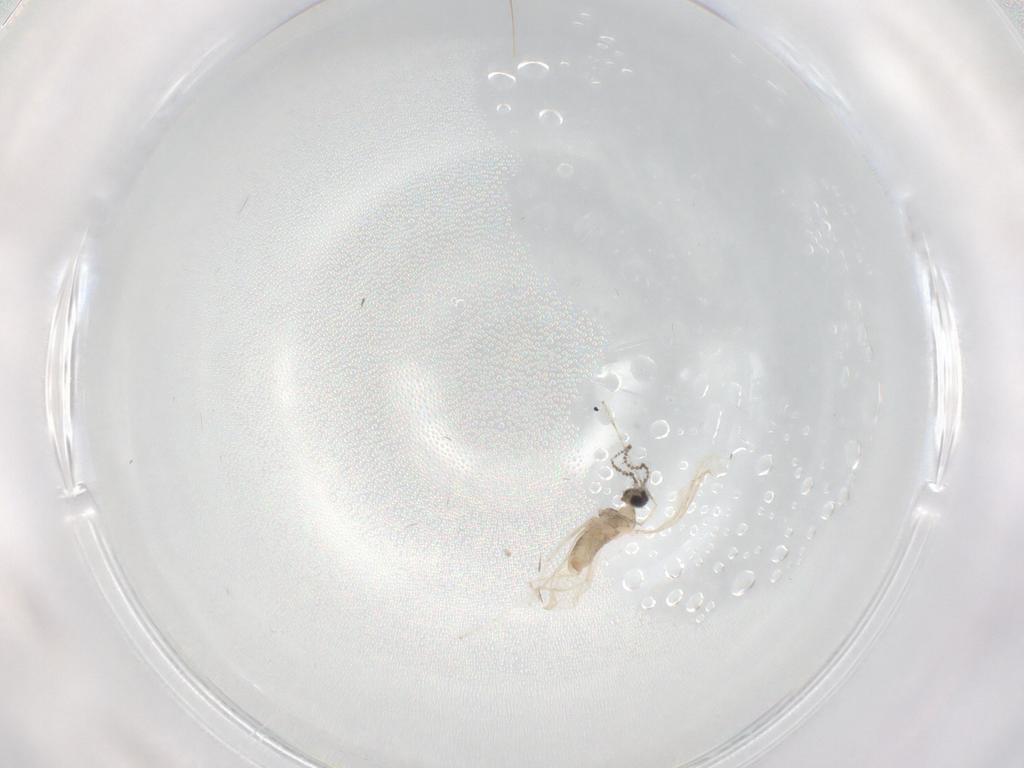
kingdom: Animalia
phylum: Arthropoda
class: Insecta
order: Diptera
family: Cecidomyiidae
